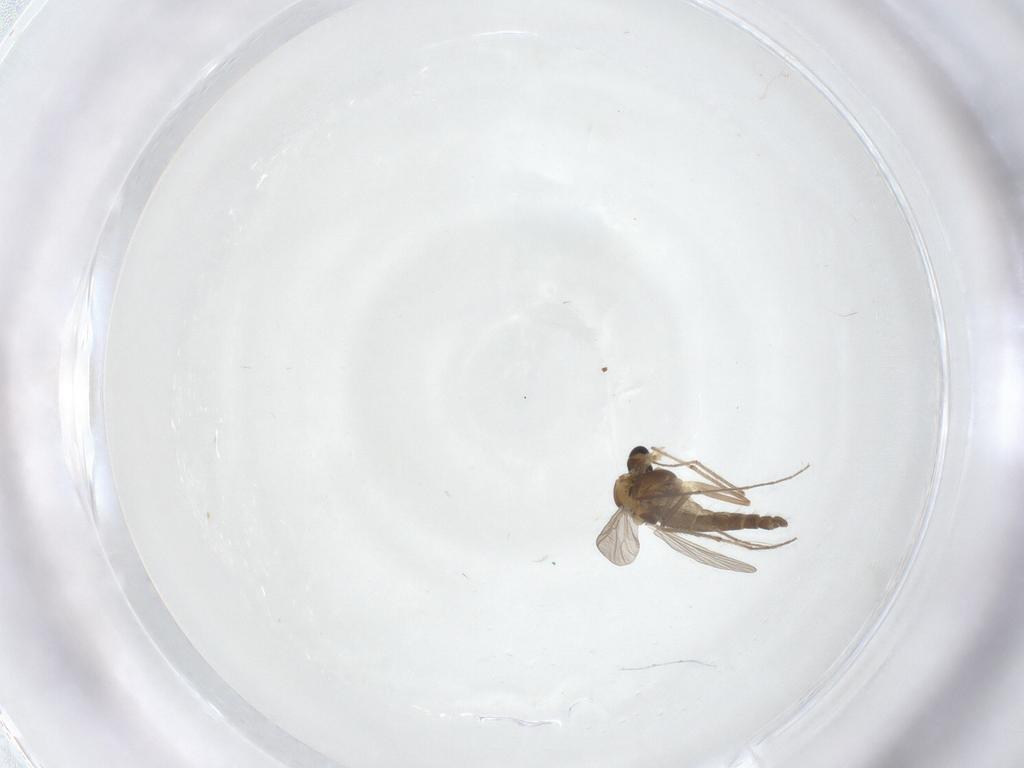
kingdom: Animalia
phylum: Arthropoda
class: Insecta
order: Diptera
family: Chironomidae
